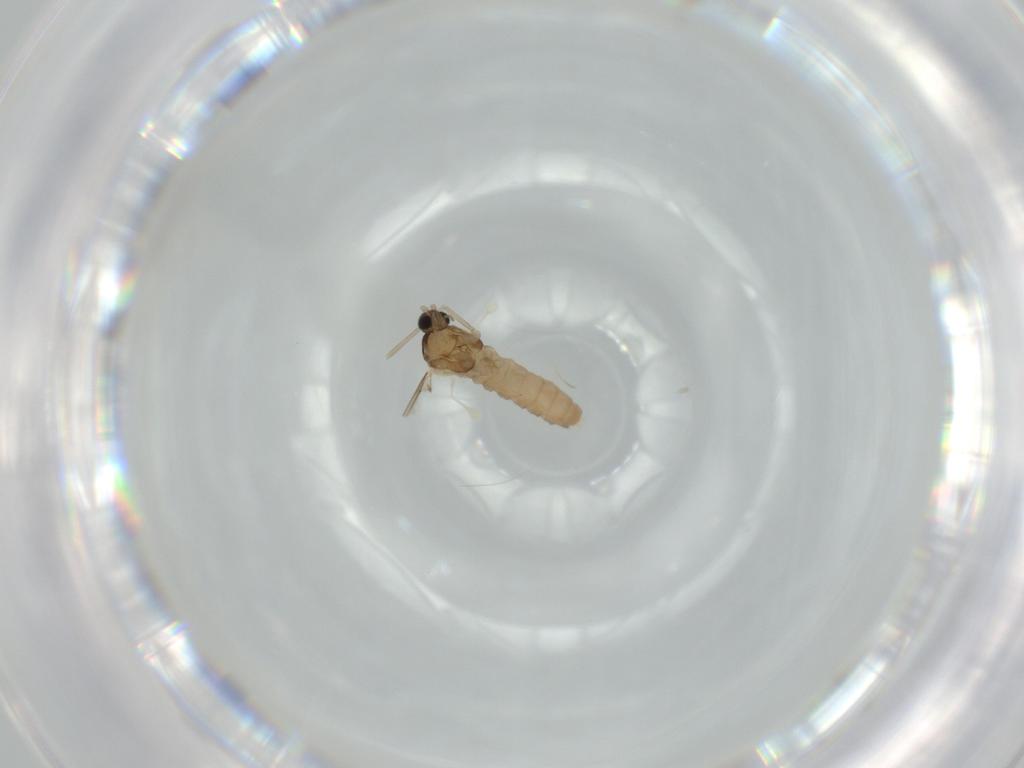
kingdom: Animalia
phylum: Arthropoda
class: Insecta
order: Diptera
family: Cecidomyiidae
